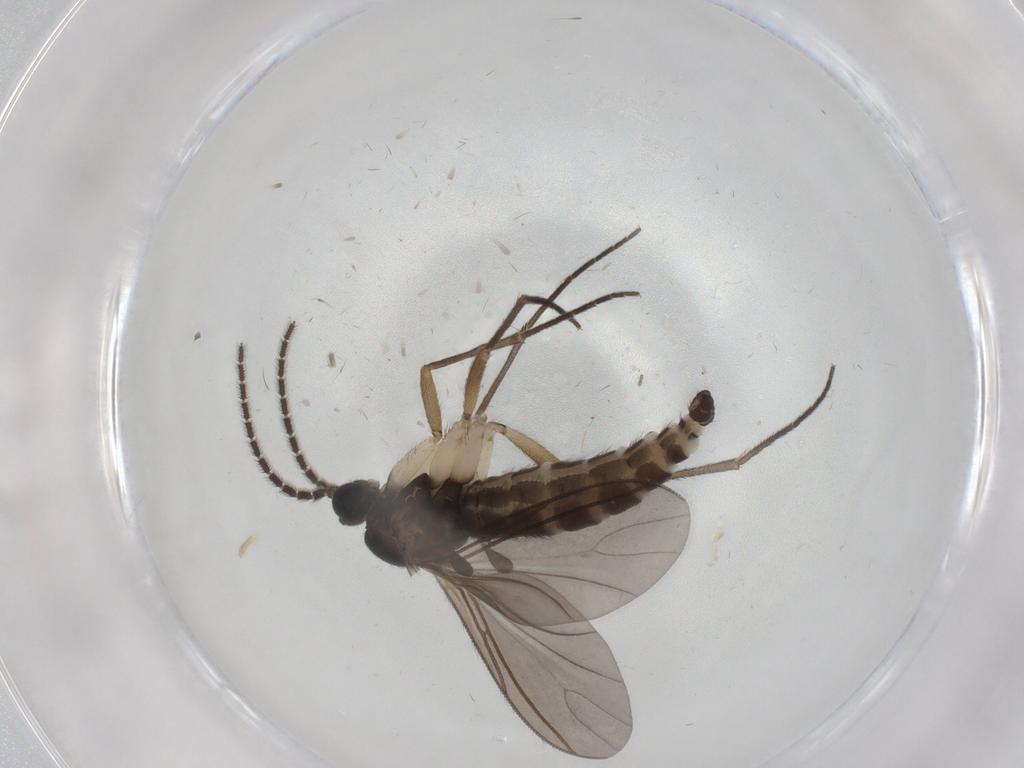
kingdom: Animalia
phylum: Arthropoda
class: Insecta
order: Diptera
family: Sciaridae
